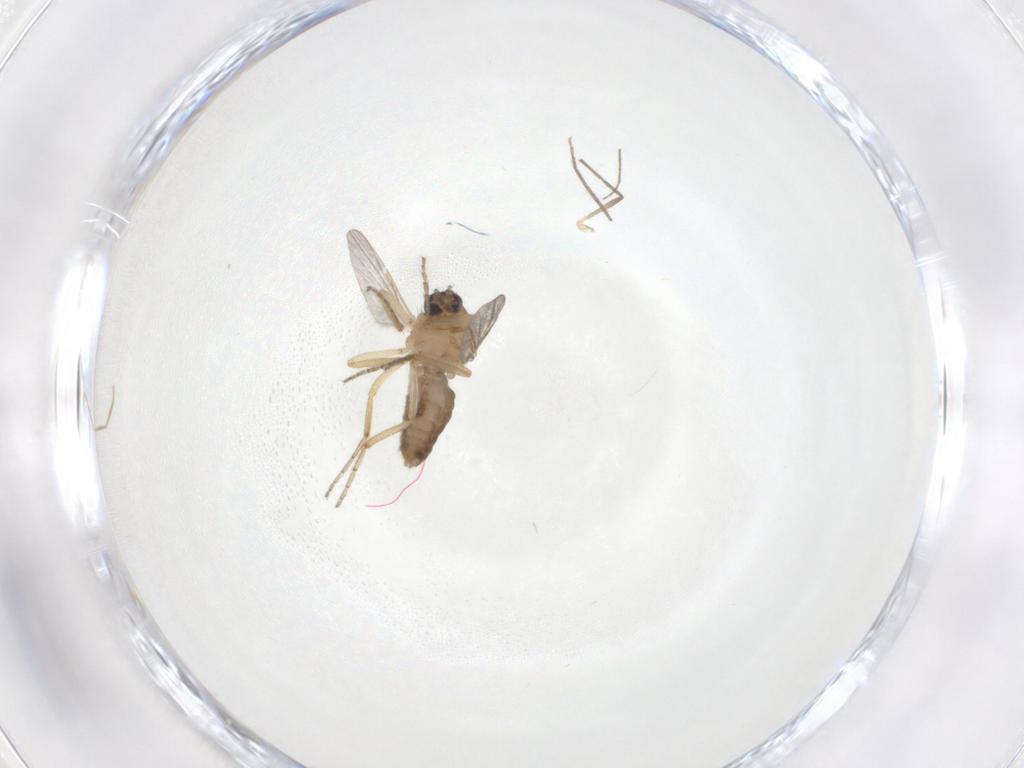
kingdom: Animalia
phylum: Arthropoda
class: Insecta
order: Diptera
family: Ceratopogonidae
